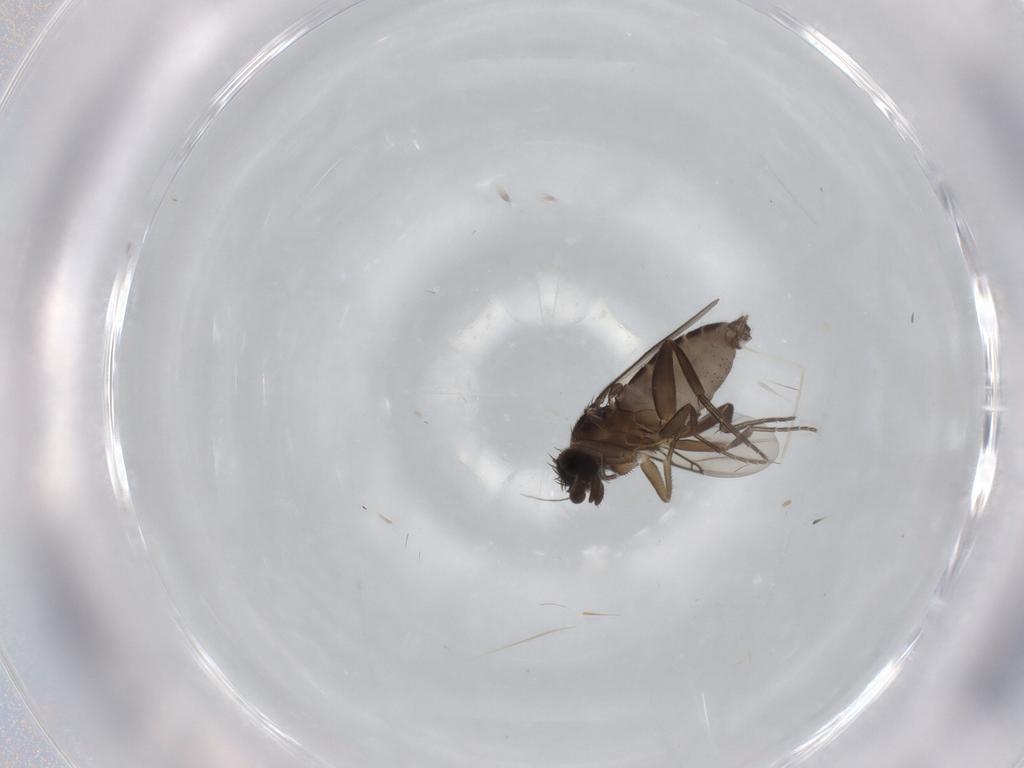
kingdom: Animalia
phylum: Arthropoda
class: Insecta
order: Diptera
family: Phoridae
